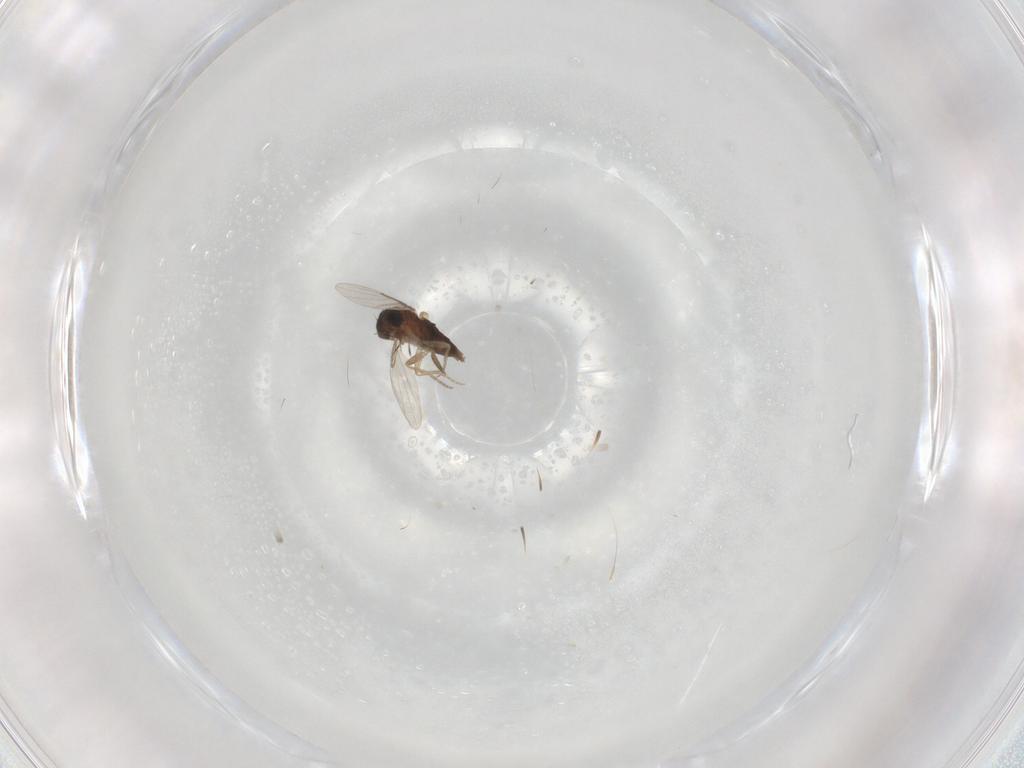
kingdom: Animalia
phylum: Arthropoda
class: Insecta
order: Diptera
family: Phoridae
